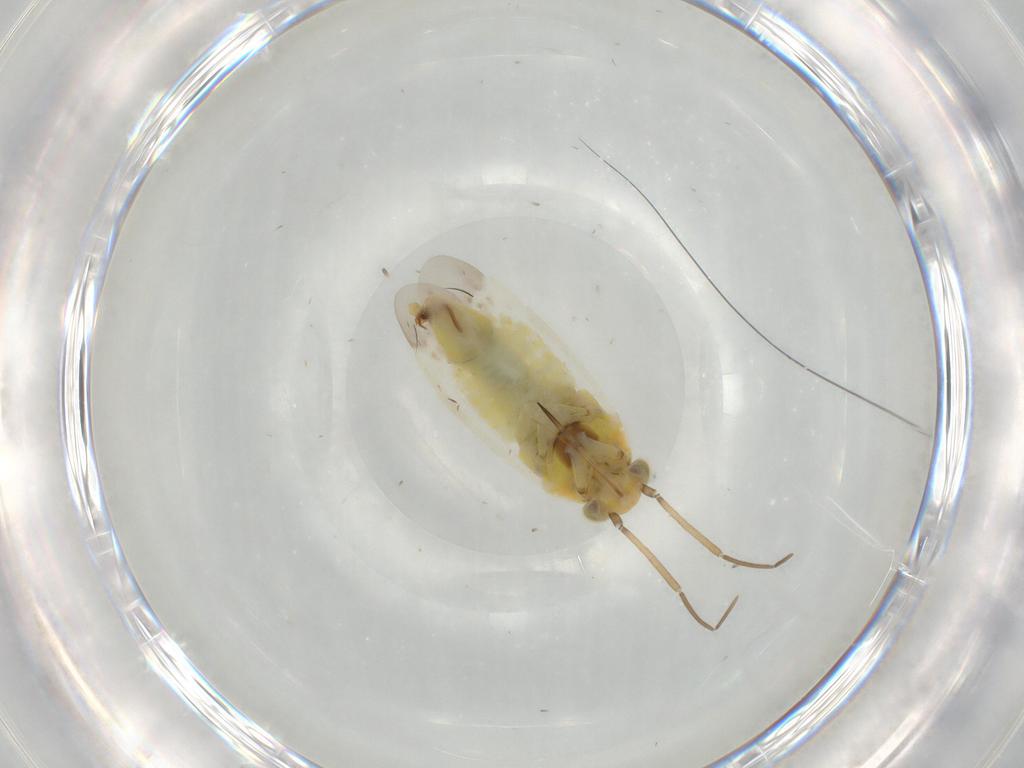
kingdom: Animalia
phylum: Arthropoda
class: Insecta
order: Hemiptera
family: Miridae
